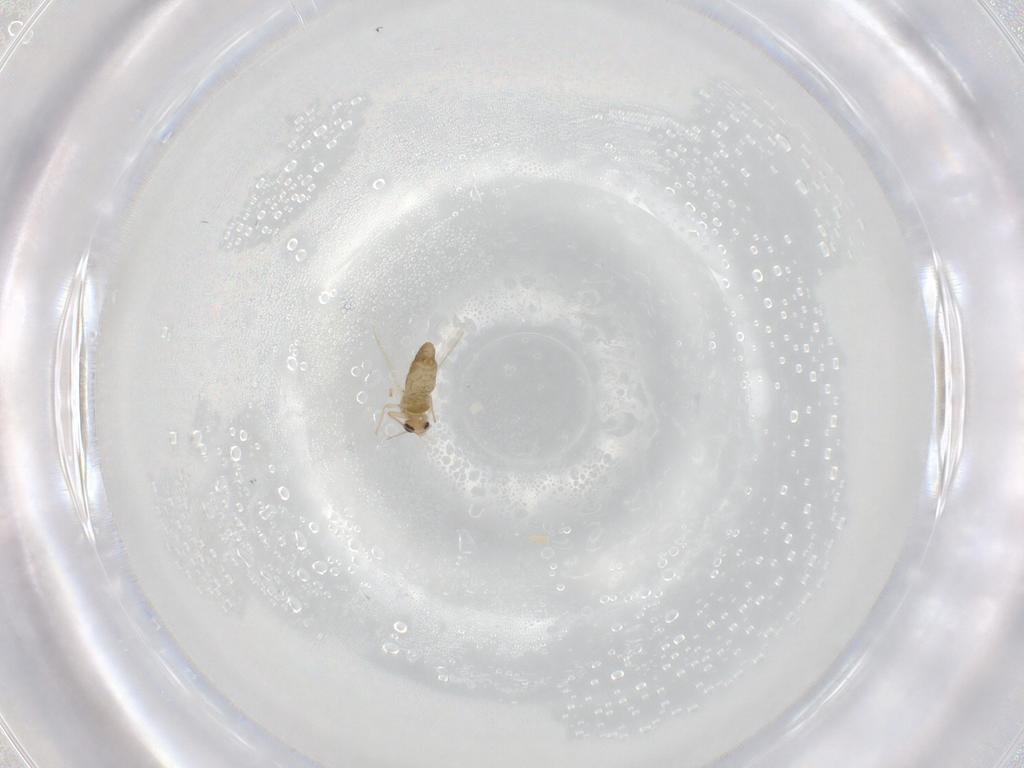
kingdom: Animalia
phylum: Arthropoda
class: Insecta
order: Diptera
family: Chironomidae
